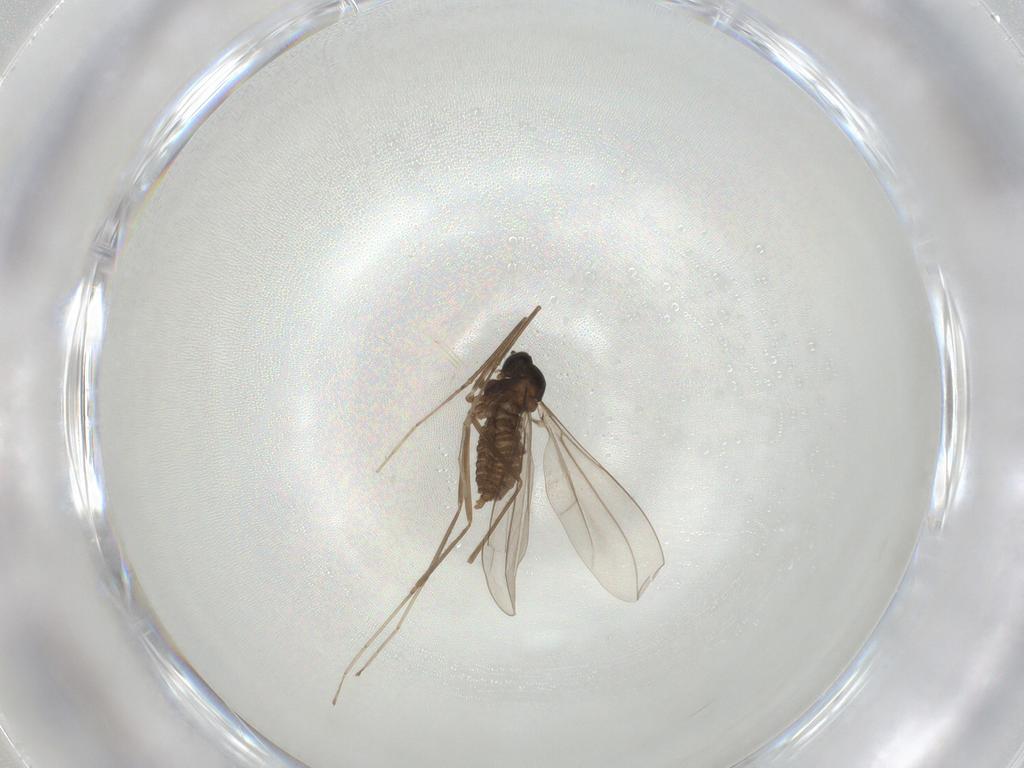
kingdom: Animalia
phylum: Arthropoda
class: Insecta
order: Diptera
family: Cecidomyiidae
